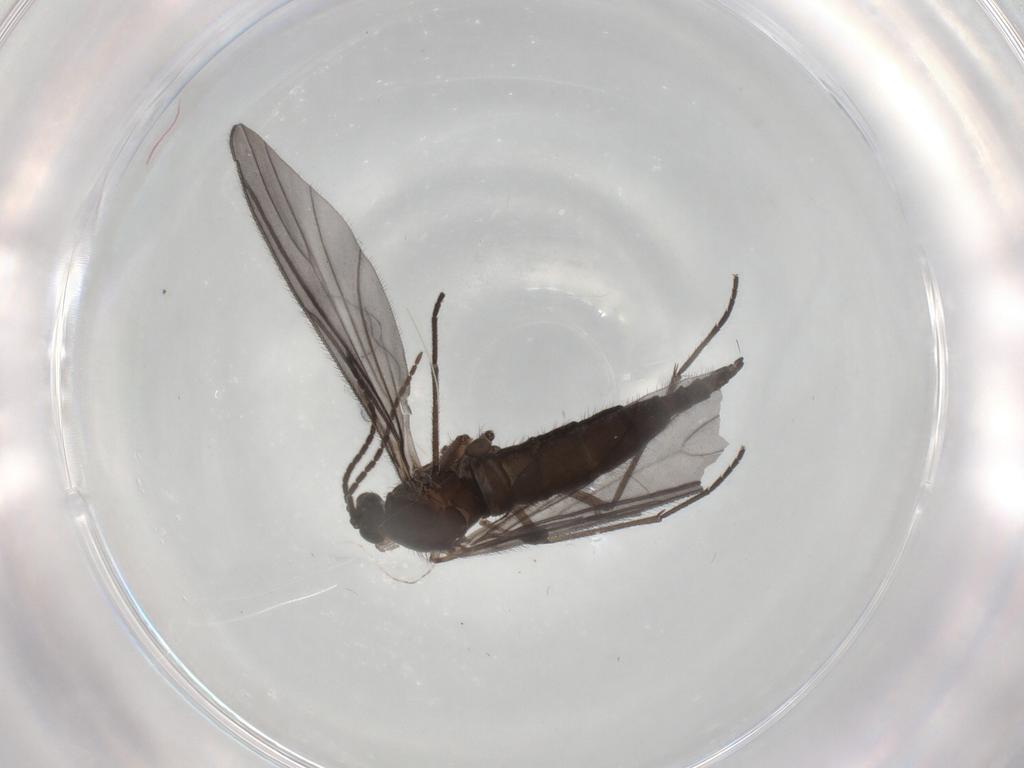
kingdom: Animalia
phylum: Arthropoda
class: Insecta
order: Diptera
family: Sciaridae
